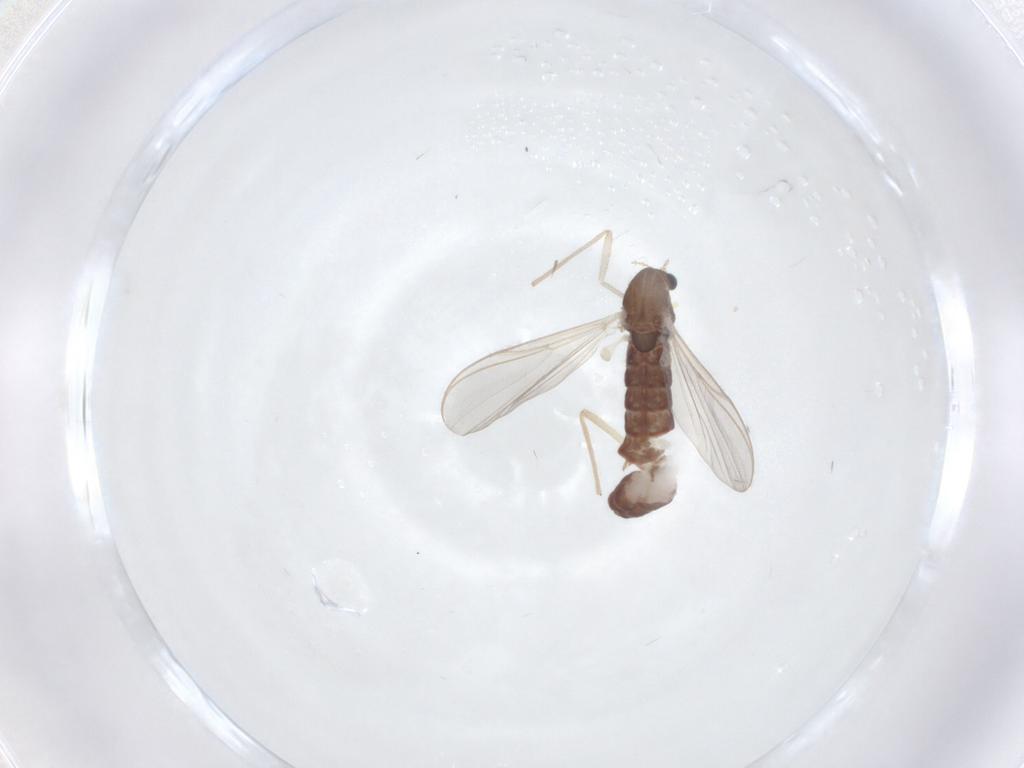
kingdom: Animalia
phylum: Arthropoda
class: Insecta
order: Diptera
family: Chironomidae
